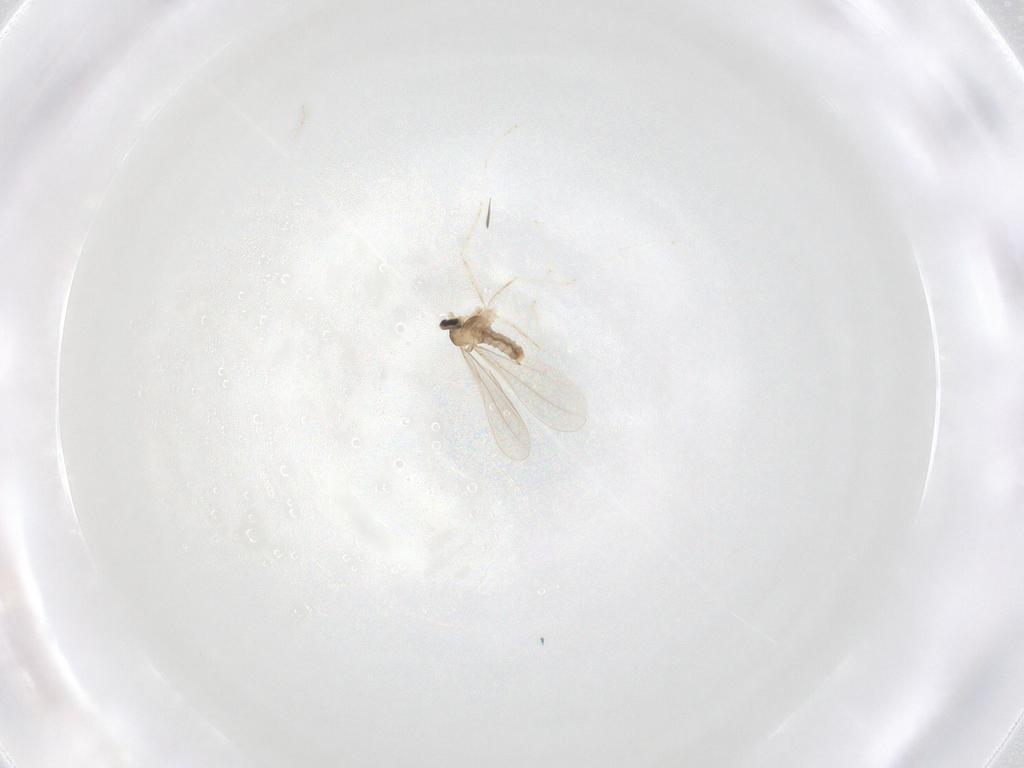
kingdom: Animalia
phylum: Arthropoda
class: Insecta
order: Diptera
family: Cecidomyiidae
